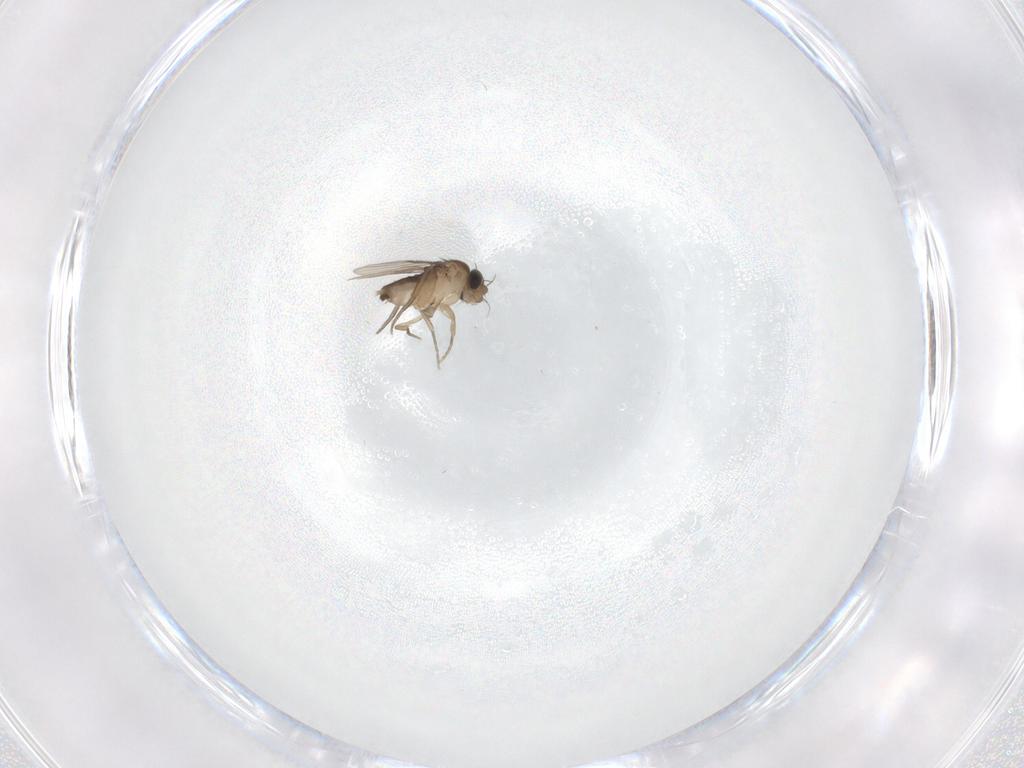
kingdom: Animalia
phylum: Arthropoda
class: Insecta
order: Diptera
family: Phoridae
